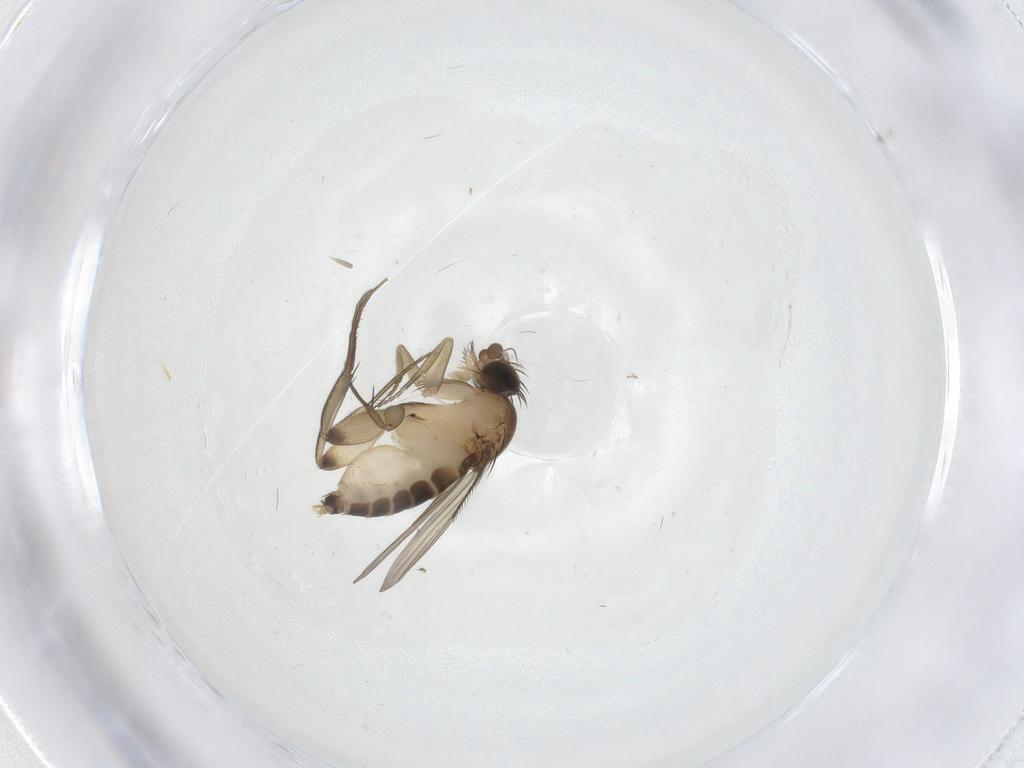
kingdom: Animalia
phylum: Arthropoda
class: Insecta
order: Diptera
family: Phoridae
